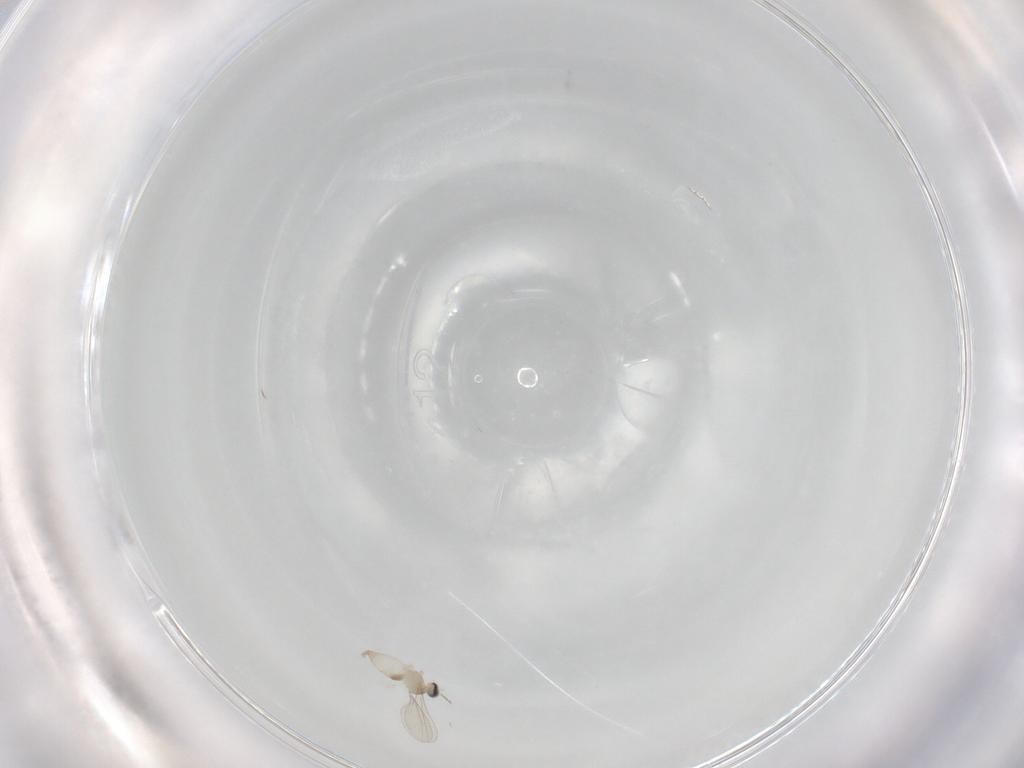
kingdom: Animalia
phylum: Arthropoda
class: Insecta
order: Diptera
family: Cecidomyiidae
